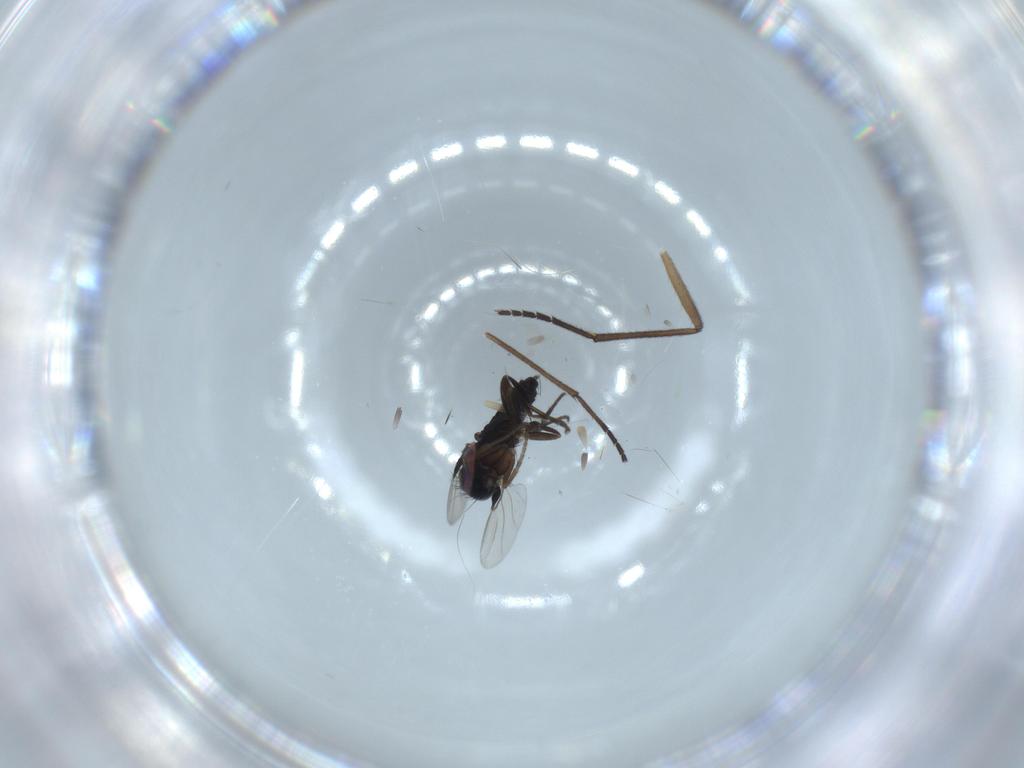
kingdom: Animalia
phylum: Arthropoda
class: Insecta
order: Diptera
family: Phoridae
